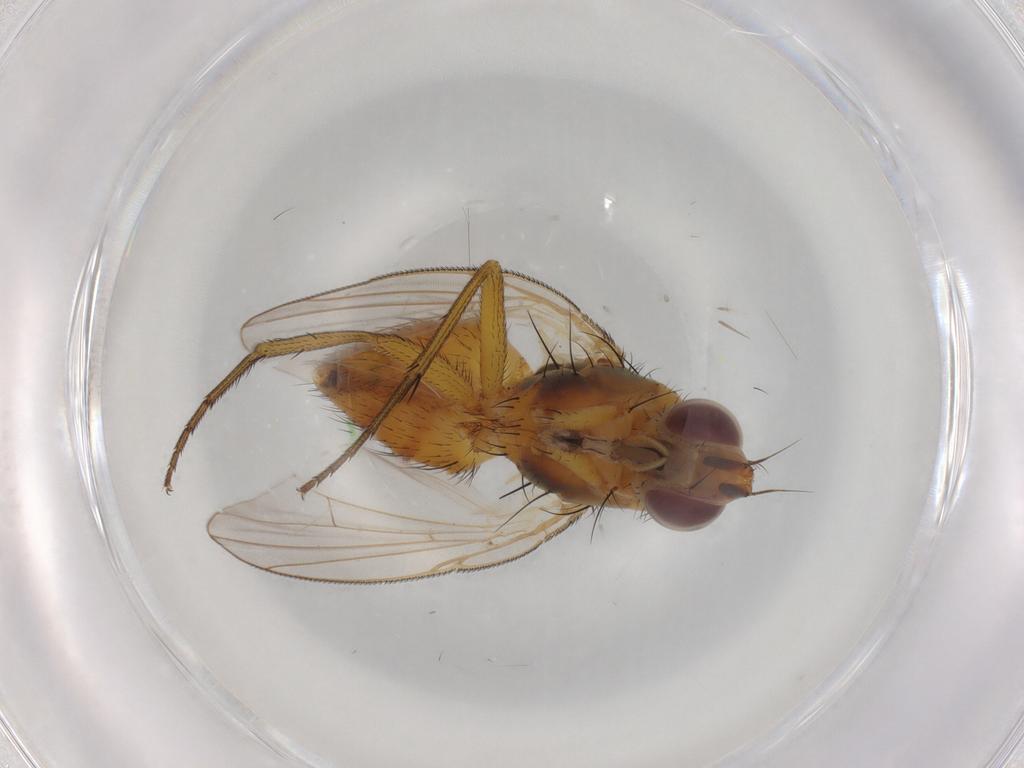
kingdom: Animalia
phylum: Arthropoda
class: Insecta
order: Diptera
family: Muscidae
